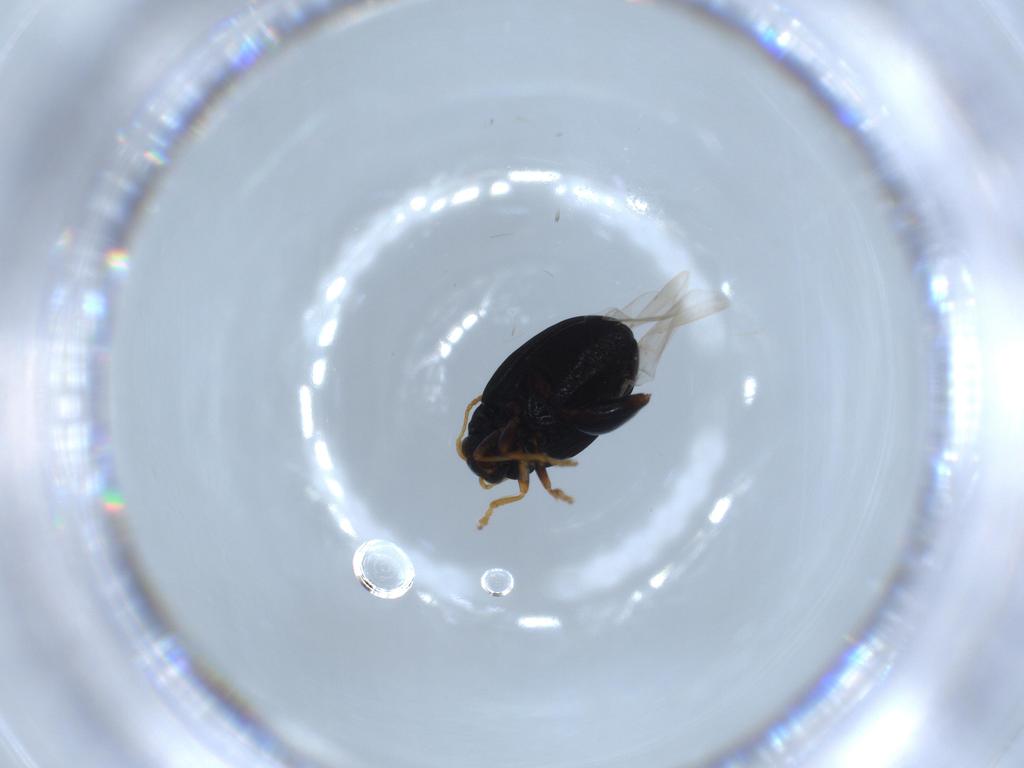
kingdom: Animalia
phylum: Arthropoda
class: Insecta
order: Coleoptera
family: Chrysomelidae
